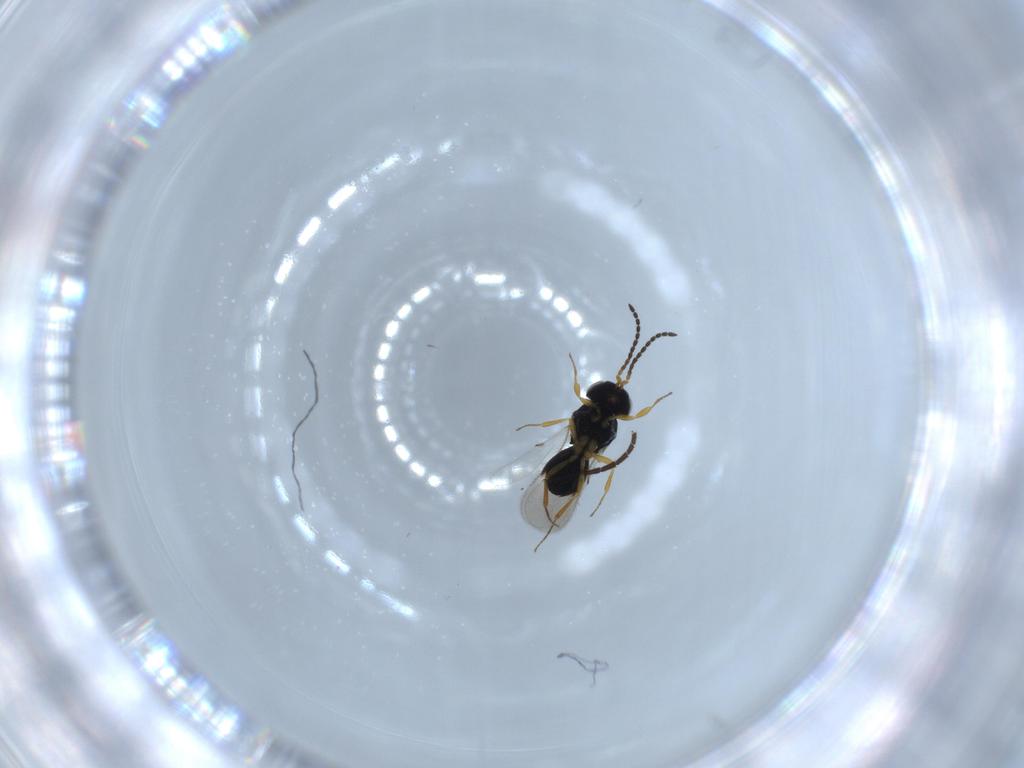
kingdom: Animalia
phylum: Arthropoda
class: Insecta
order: Hymenoptera
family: Scelionidae
